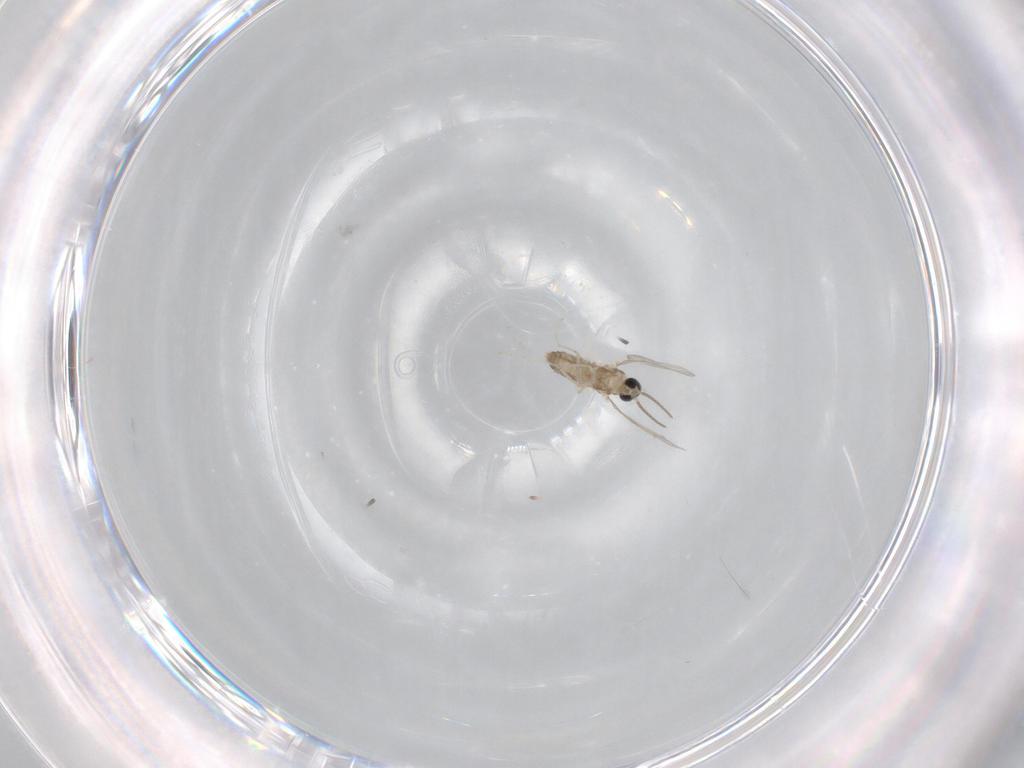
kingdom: Animalia
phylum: Arthropoda
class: Insecta
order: Diptera
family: Cecidomyiidae
